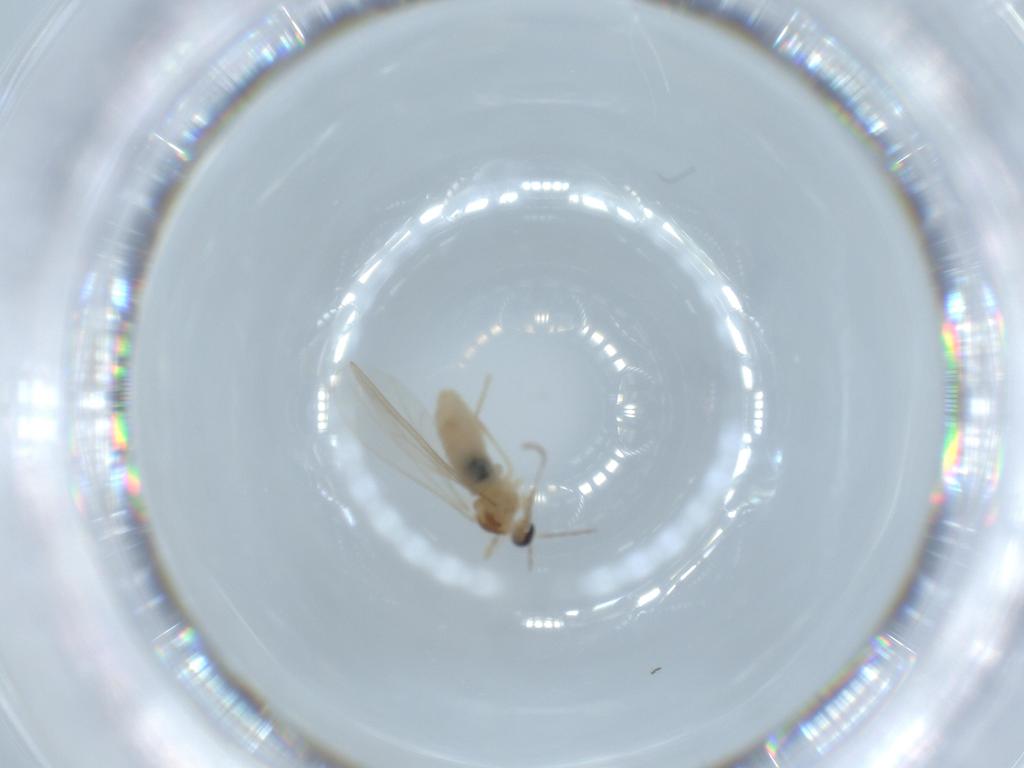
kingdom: Animalia
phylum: Arthropoda
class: Insecta
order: Diptera
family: Cecidomyiidae
